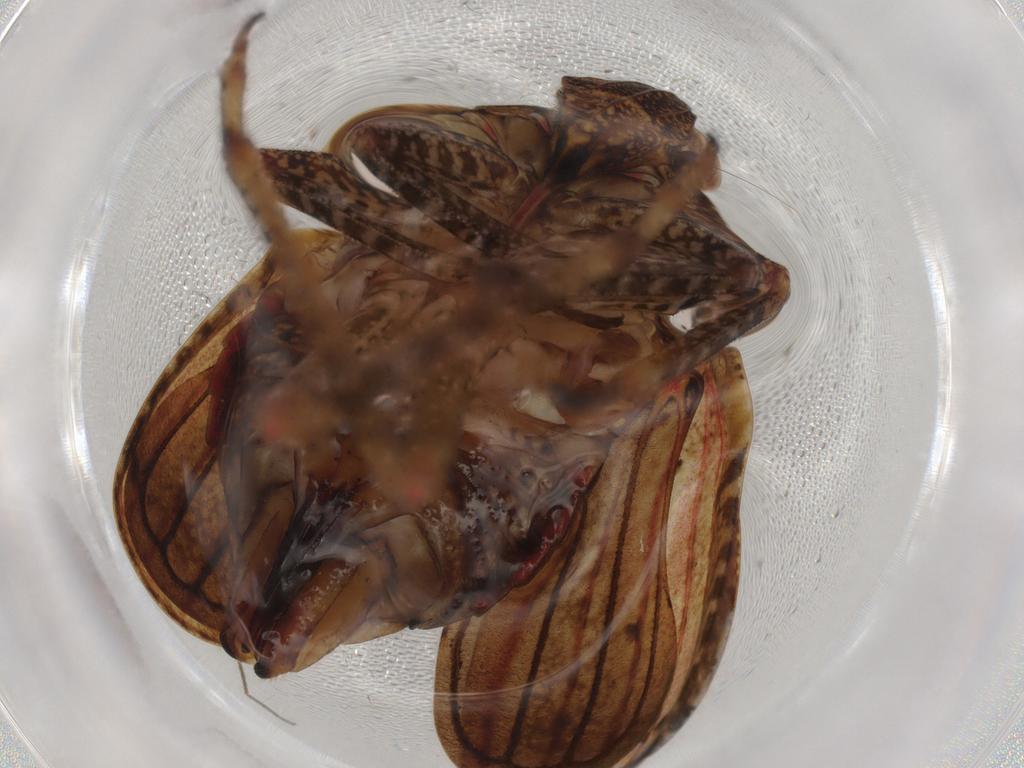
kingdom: Animalia
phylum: Arthropoda
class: Insecta
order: Hemiptera
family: Tropiduchidae
